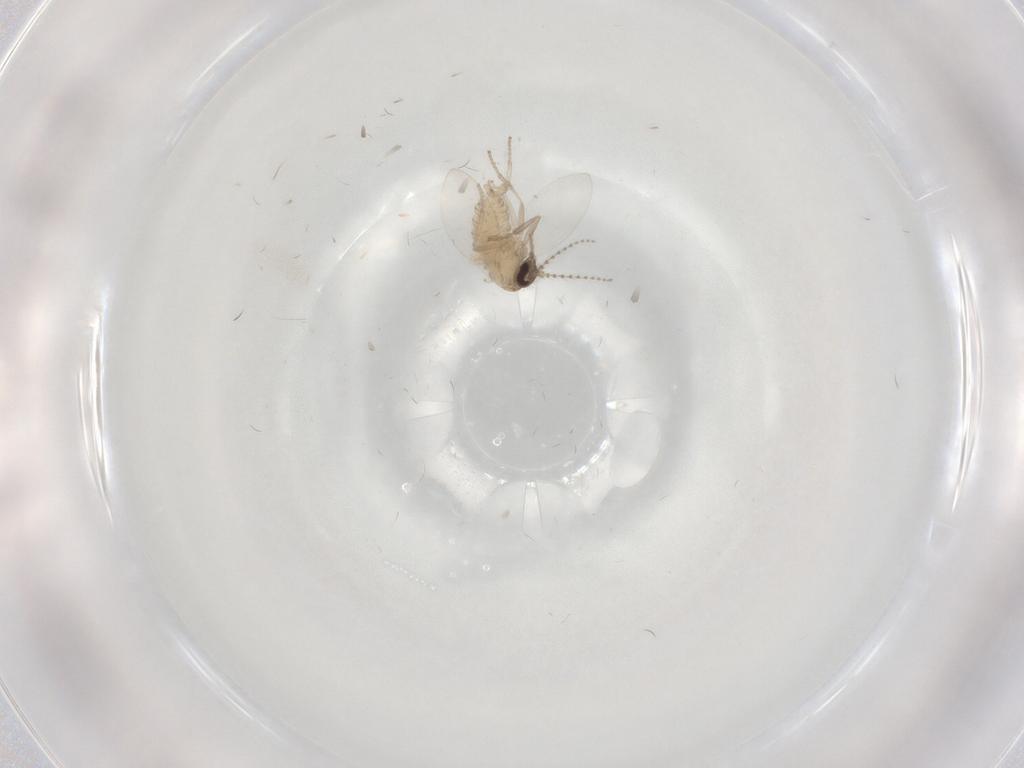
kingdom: Animalia
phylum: Arthropoda
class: Insecta
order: Diptera
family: Psychodidae
